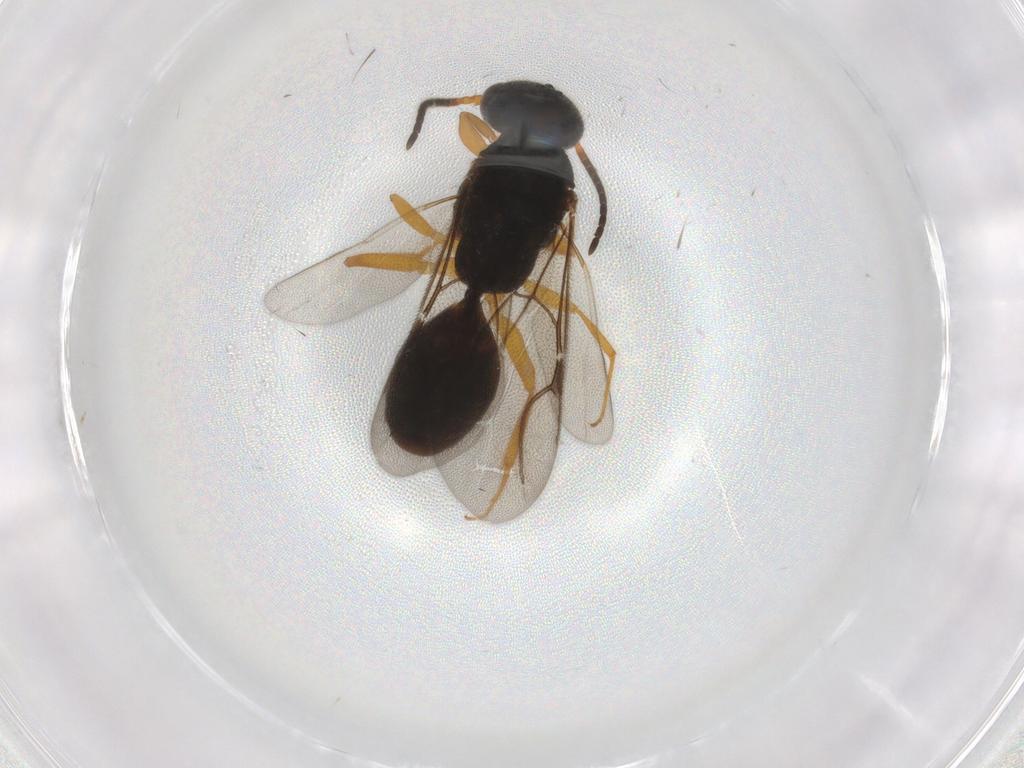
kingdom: Animalia
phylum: Arthropoda
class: Insecta
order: Hymenoptera
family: Bethylidae
